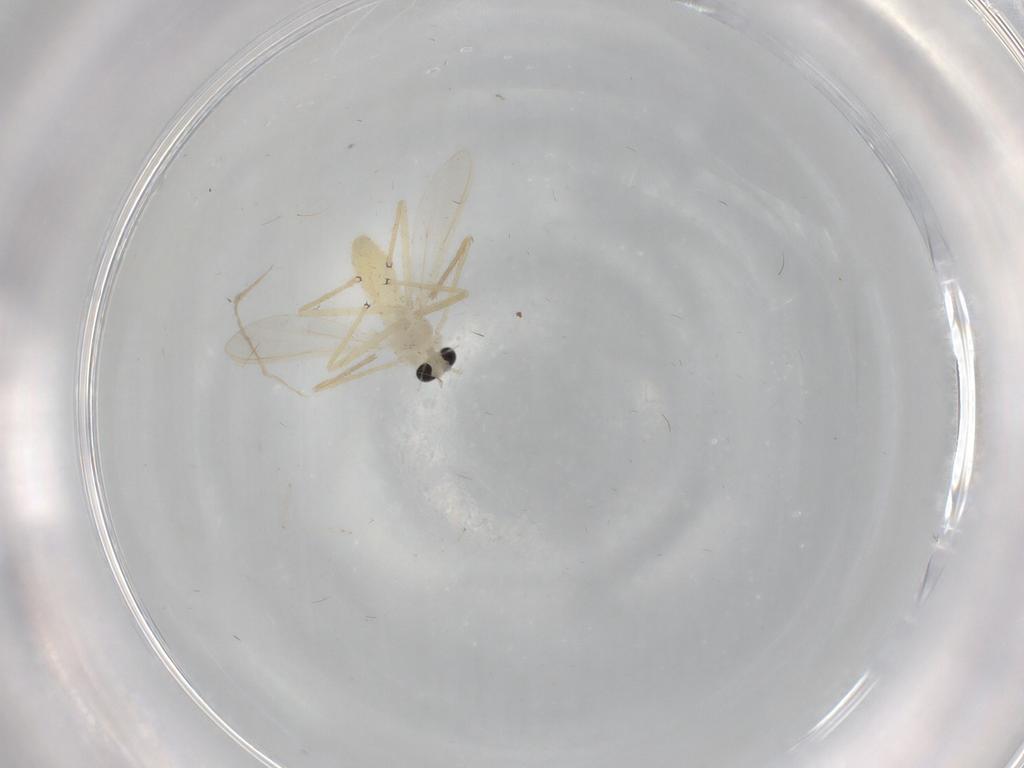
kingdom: Animalia
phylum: Arthropoda
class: Insecta
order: Diptera
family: Chironomidae
